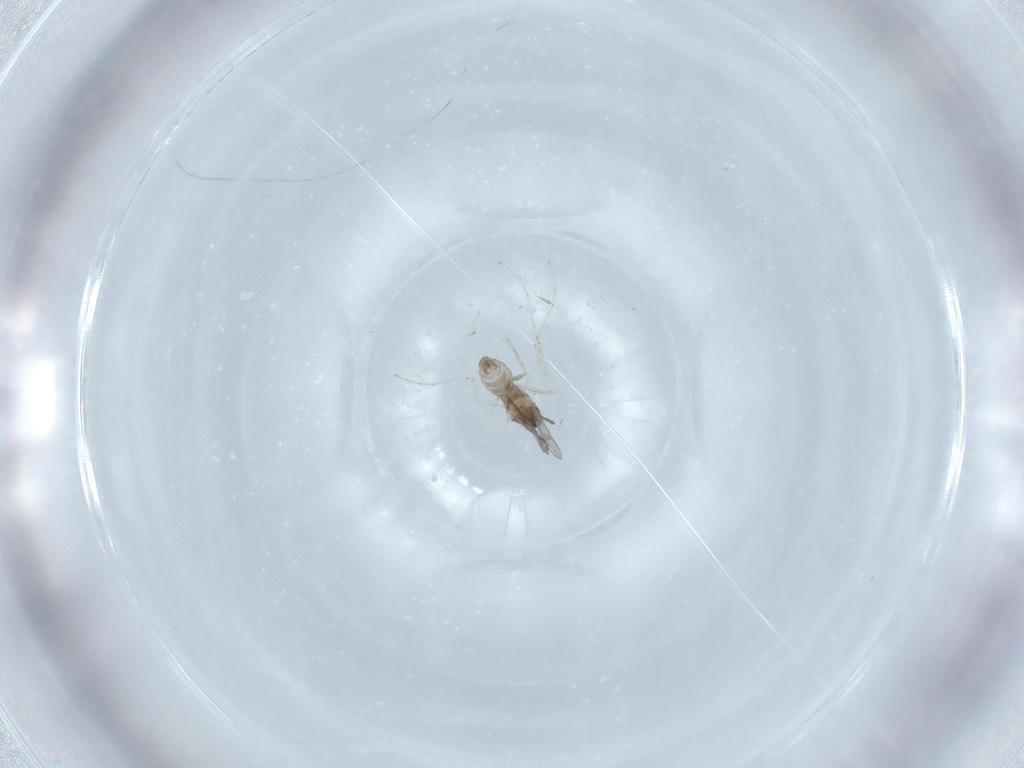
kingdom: Animalia
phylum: Arthropoda
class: Insecta
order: Diptera
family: Cecidomyiidae
